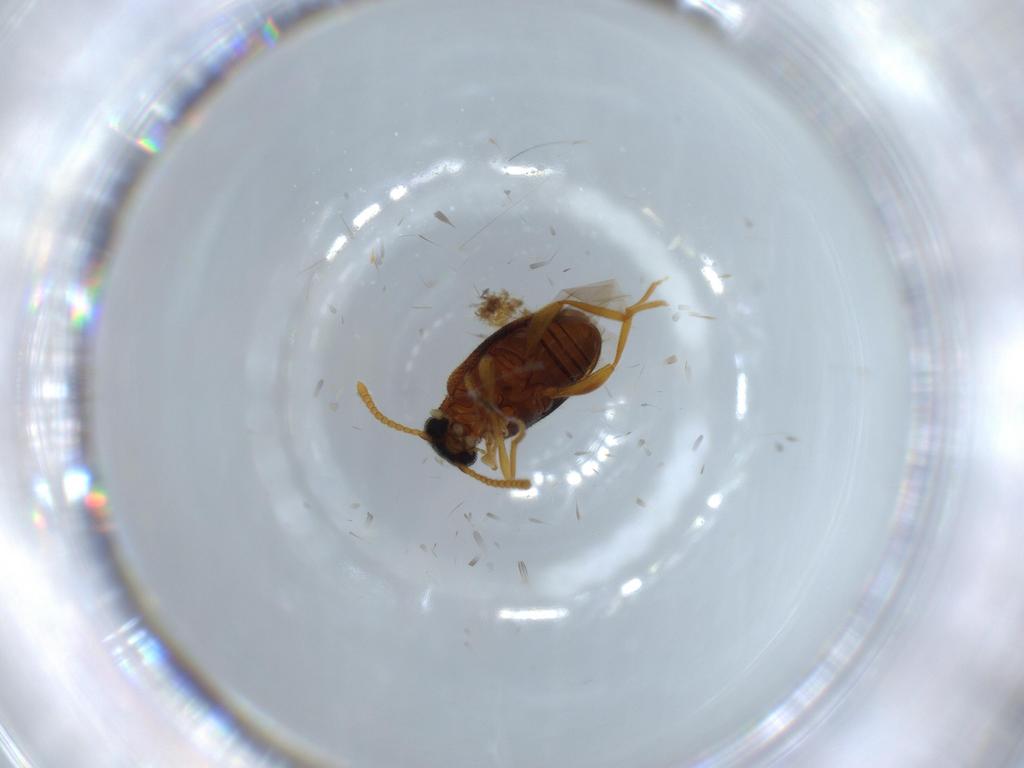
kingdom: Animalia
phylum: Arthropoda
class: Insecta
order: Coleoptera
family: Aderidae
